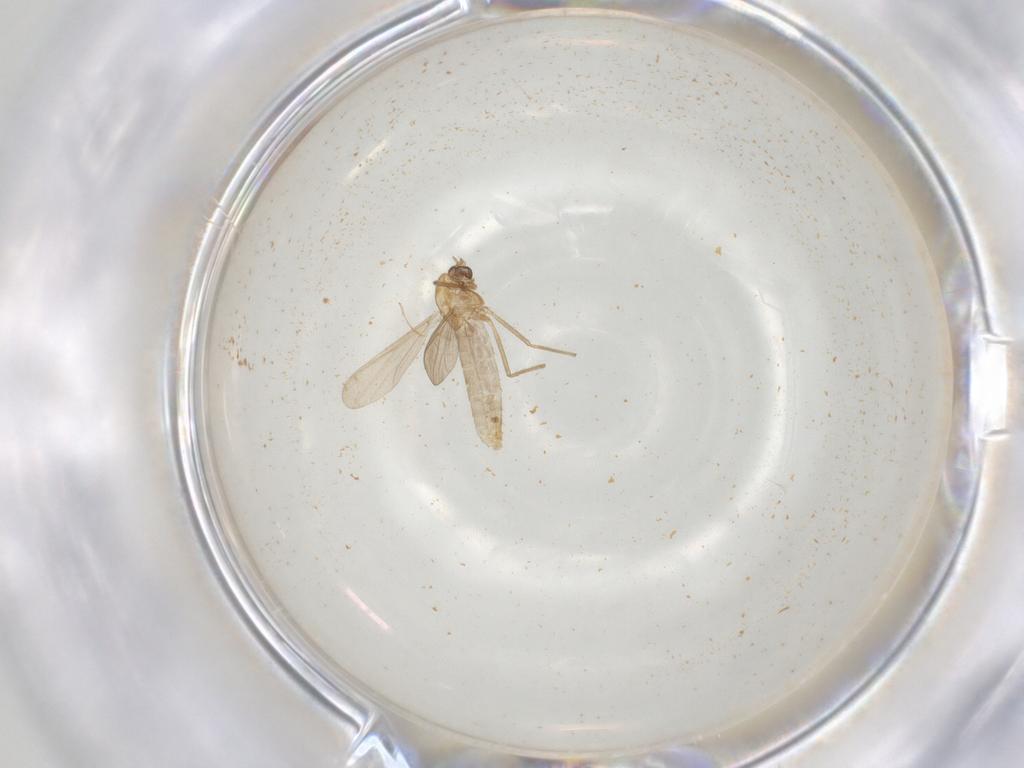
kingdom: Animalia
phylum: Arthropoda
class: Insecta
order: Diptera
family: Chironomidae
